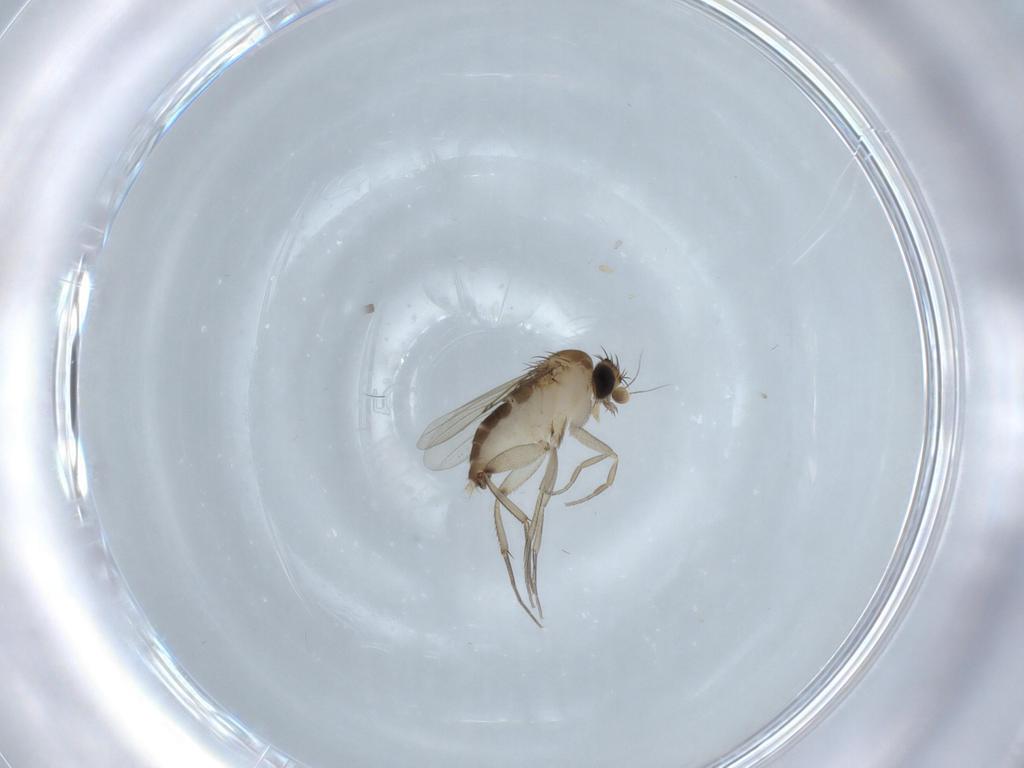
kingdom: Animalia
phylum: Arthropoda
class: Insecta
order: Diptera
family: Phoridae
